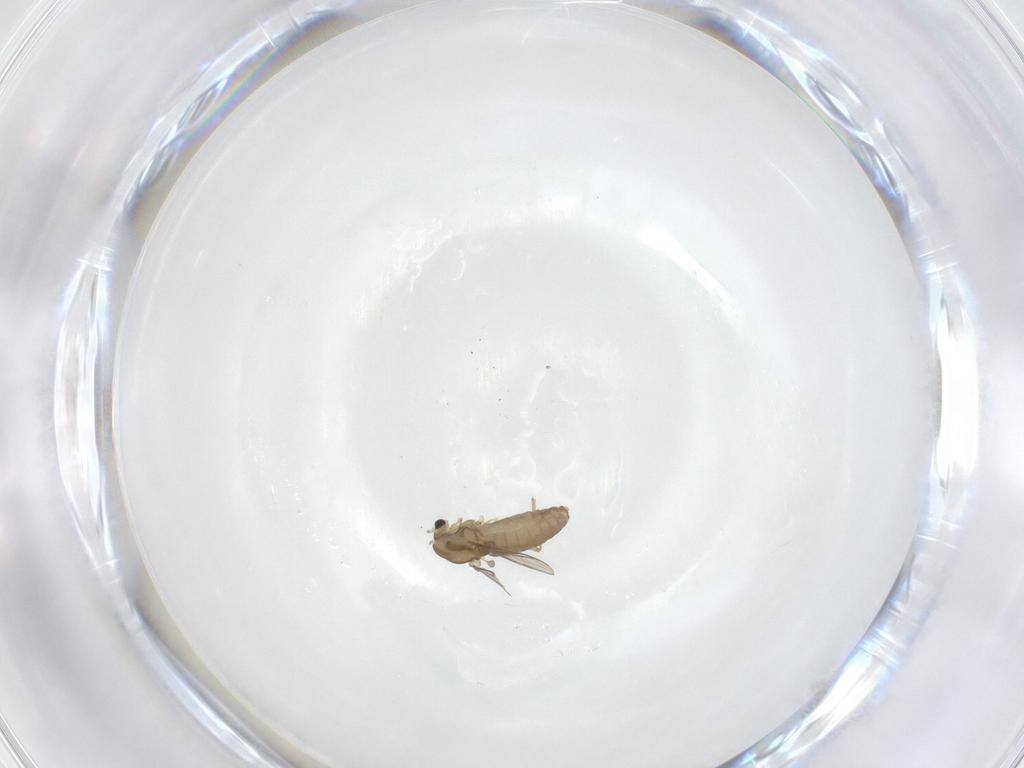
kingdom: Animalia
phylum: Arthropoda
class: Insecta
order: Diptera
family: Chironomidae
